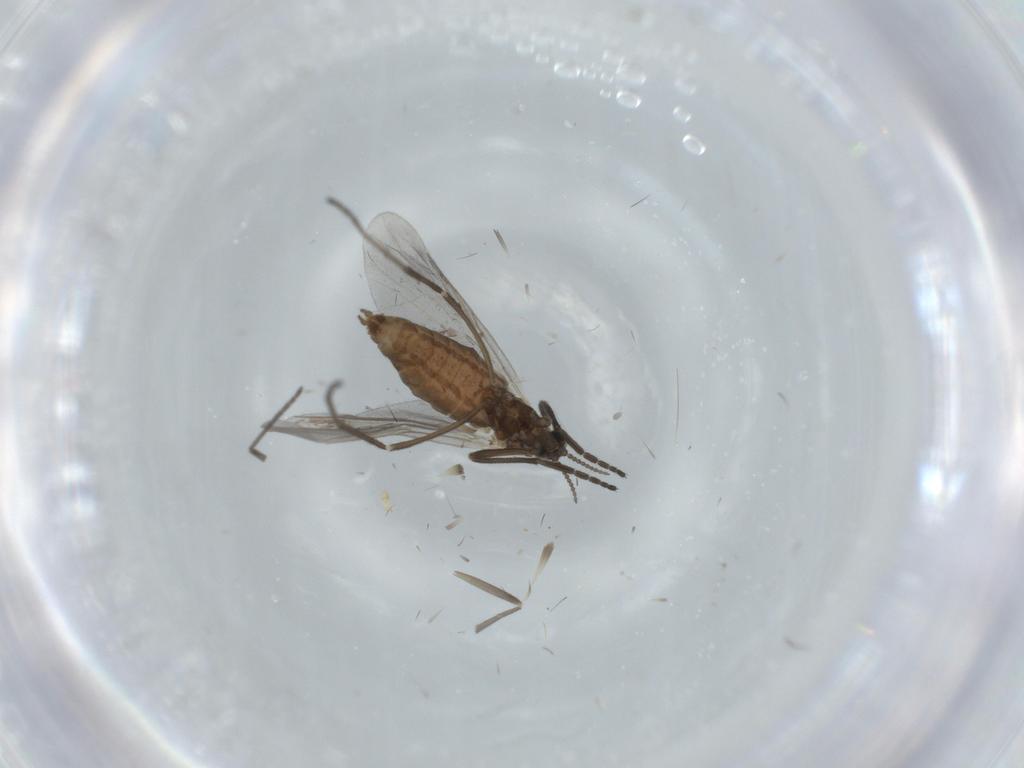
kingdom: Animalia
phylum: Arthropoda
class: Insecta
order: Diptera
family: Cecidomyiidae
